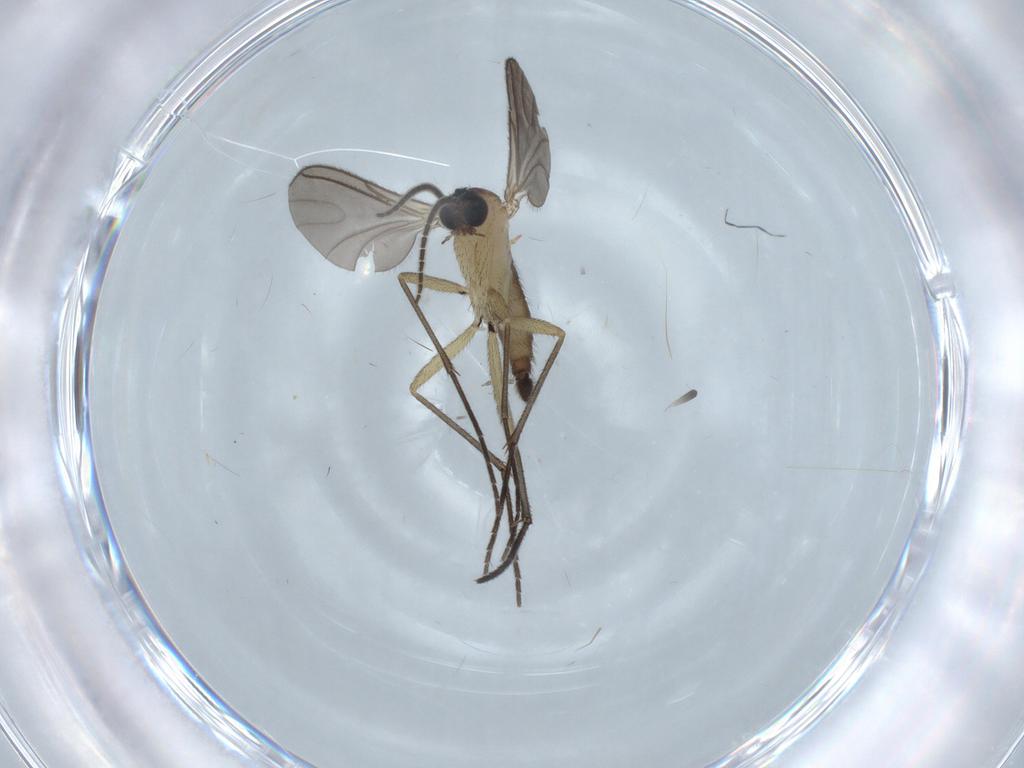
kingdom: Animalia
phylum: Arthropoda
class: Insecta
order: Diptera
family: Sciaridae
